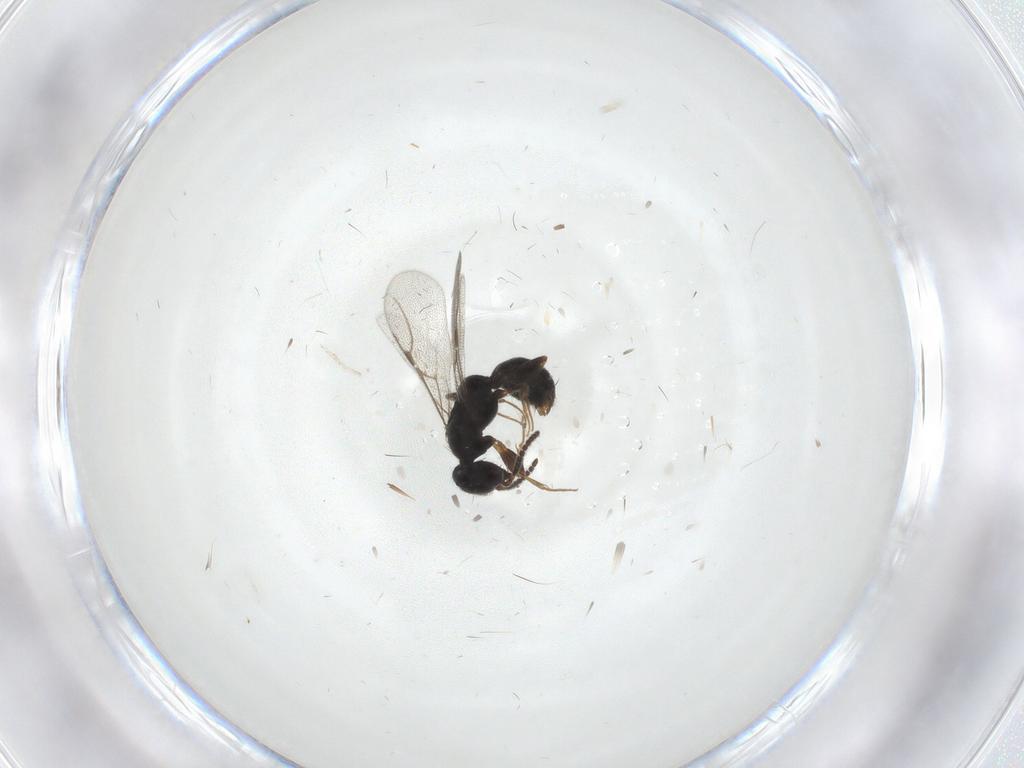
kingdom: Animalia
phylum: Arthropoda
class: Insecta
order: Hymenoptera
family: Bethylidae
